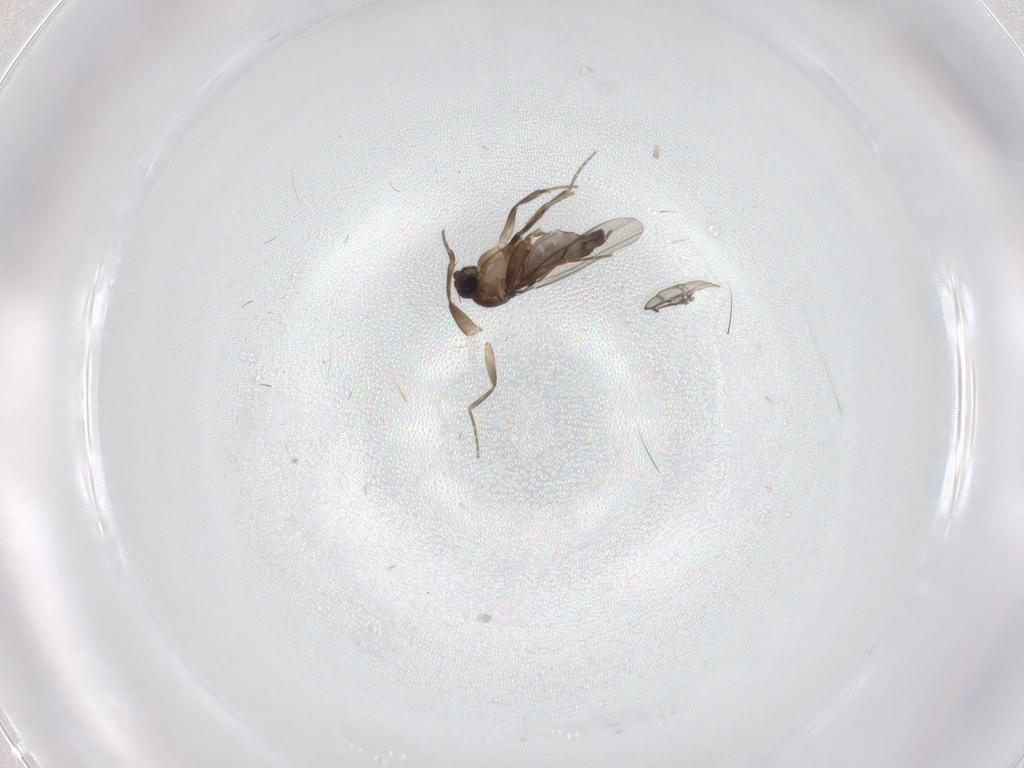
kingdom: Animalia
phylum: Arthropoda
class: Insecta
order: Diptera
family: Phoridae
